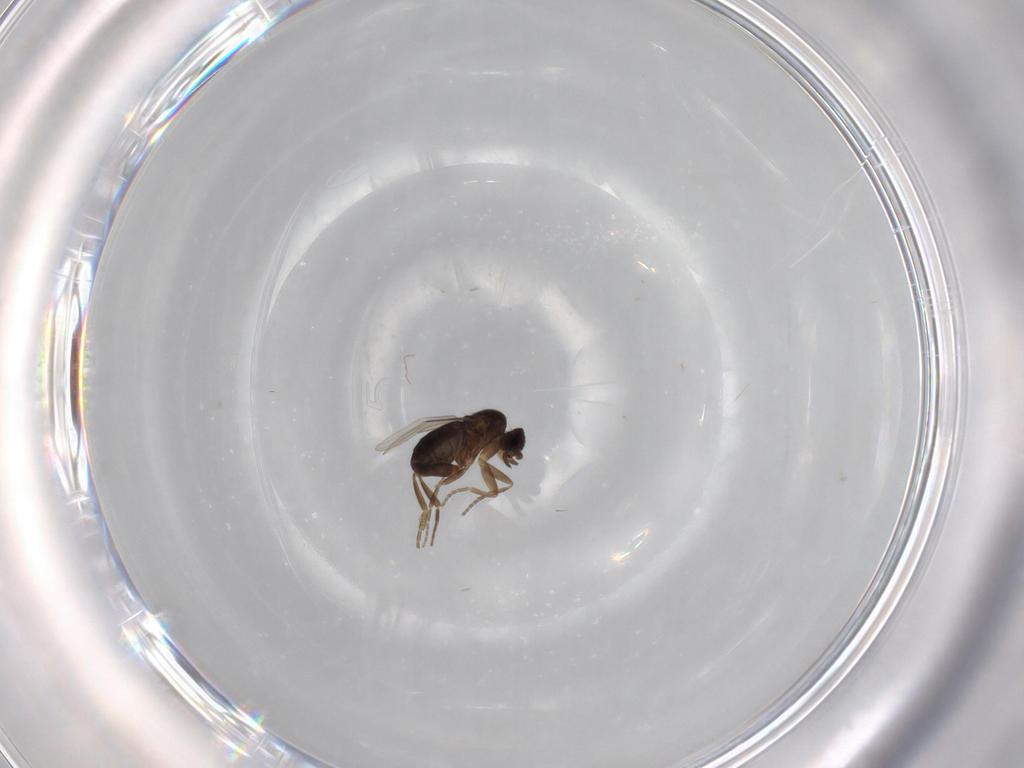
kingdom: Animalia
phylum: Arthropoda
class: Insecta
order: Diptera
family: Phoridae
